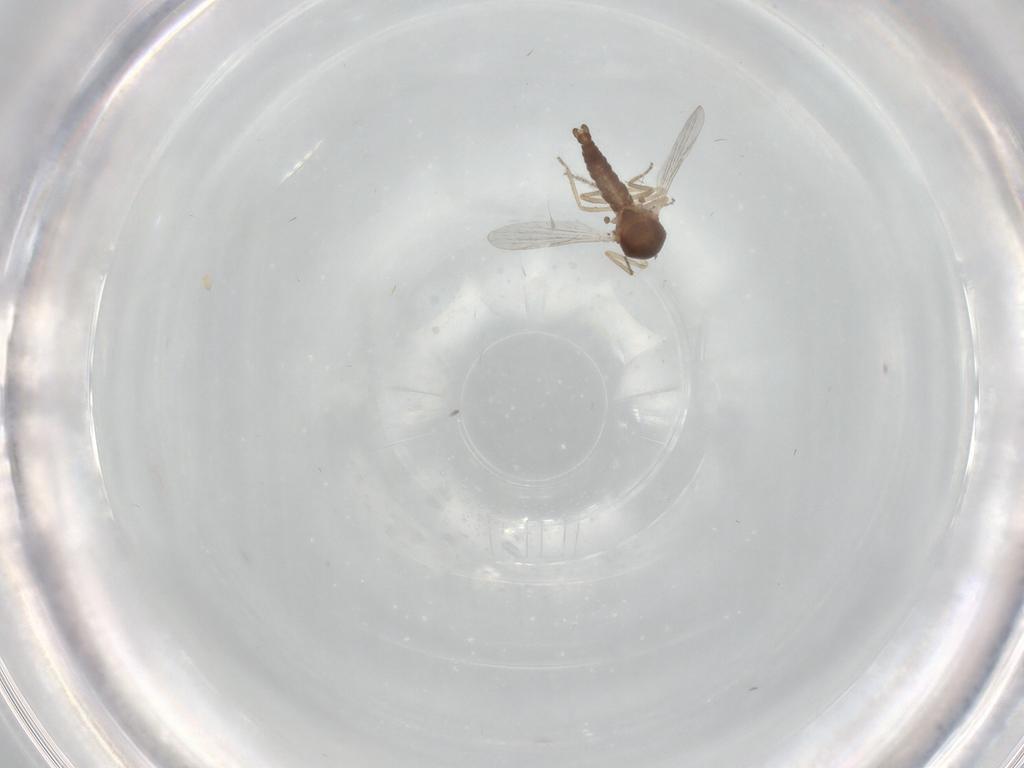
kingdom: Animalia
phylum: Arthropoda
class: Insecta
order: Diptera
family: Ceratopogonidae
